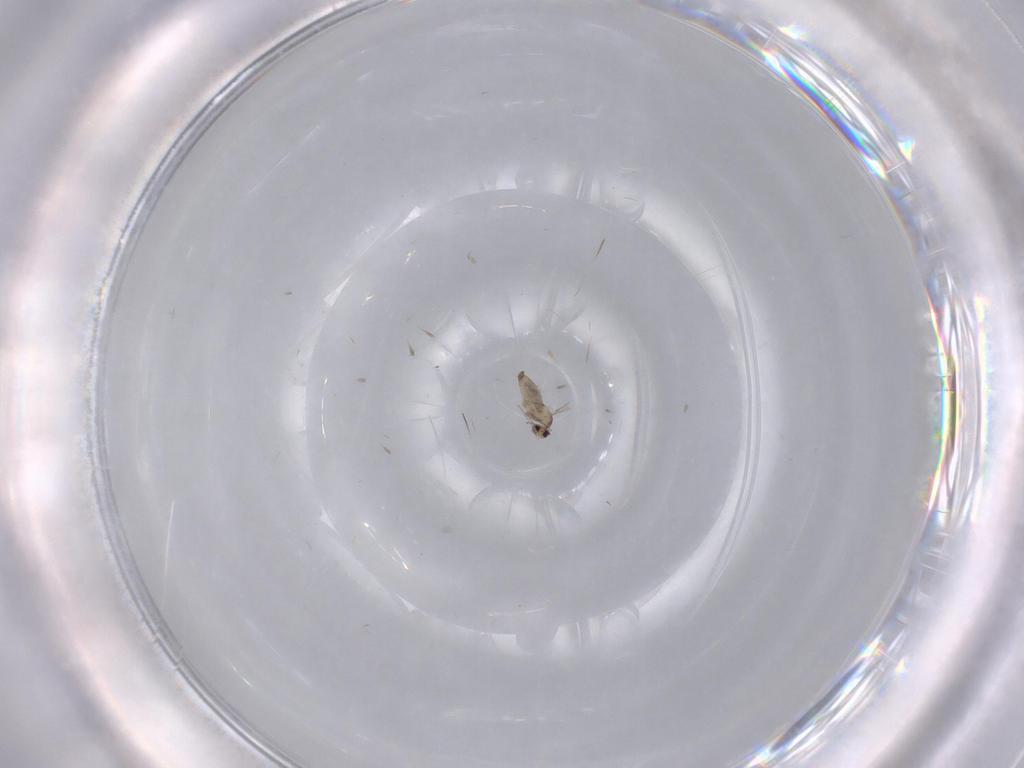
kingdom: Animalia
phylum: Arthropoda
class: Insecta
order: Diptera
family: Cecidomyiidae
